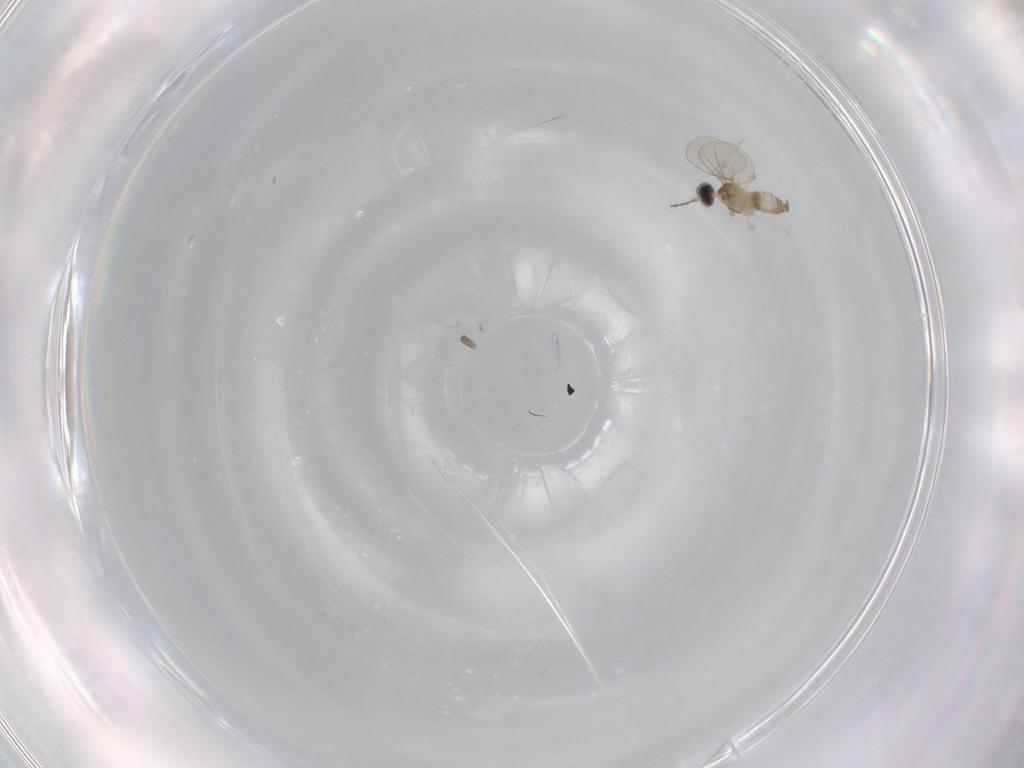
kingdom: Animalia
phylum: Arthropoda
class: Insecta
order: Diptera
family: Cecidomyiidae
